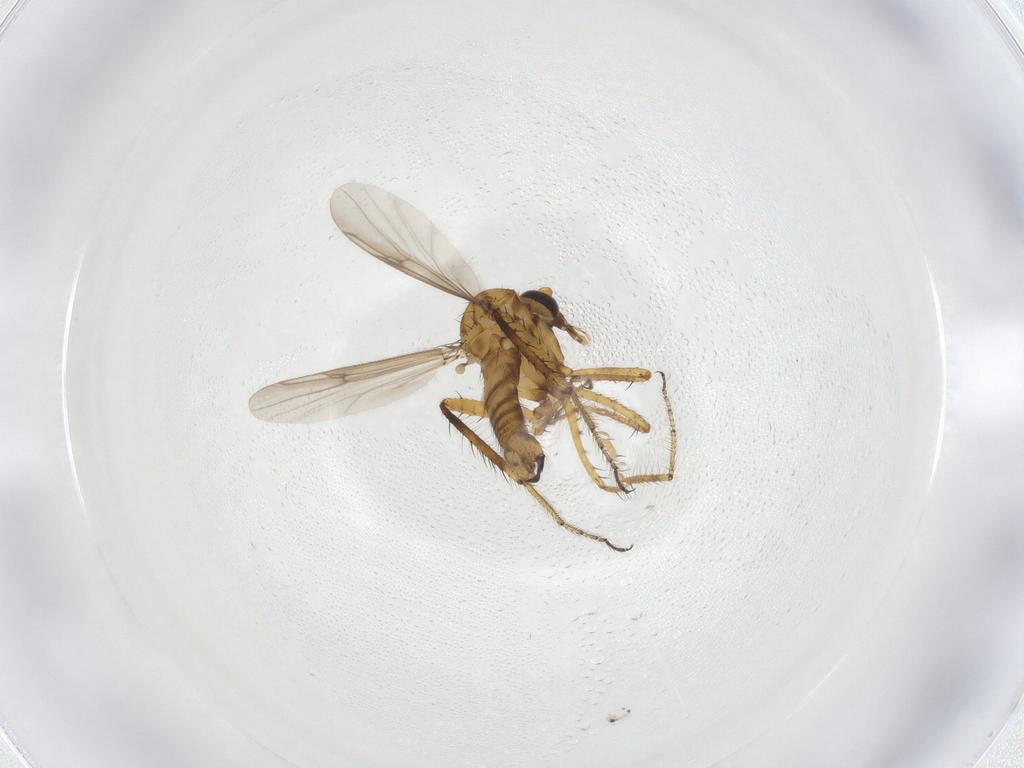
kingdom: Animalia
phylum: Arthropoda
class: Insecta
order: Diptera
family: Ceratopogonidae
